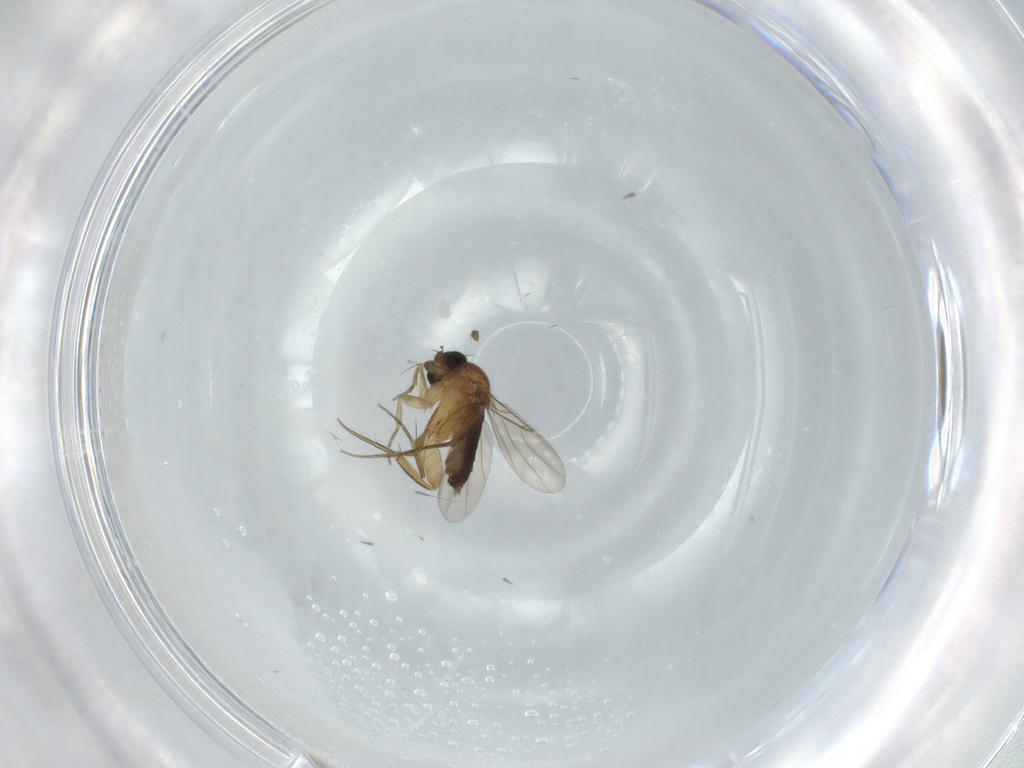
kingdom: Animalia
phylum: Arthropoda
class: Insecta
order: Diptera
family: Phoridae
